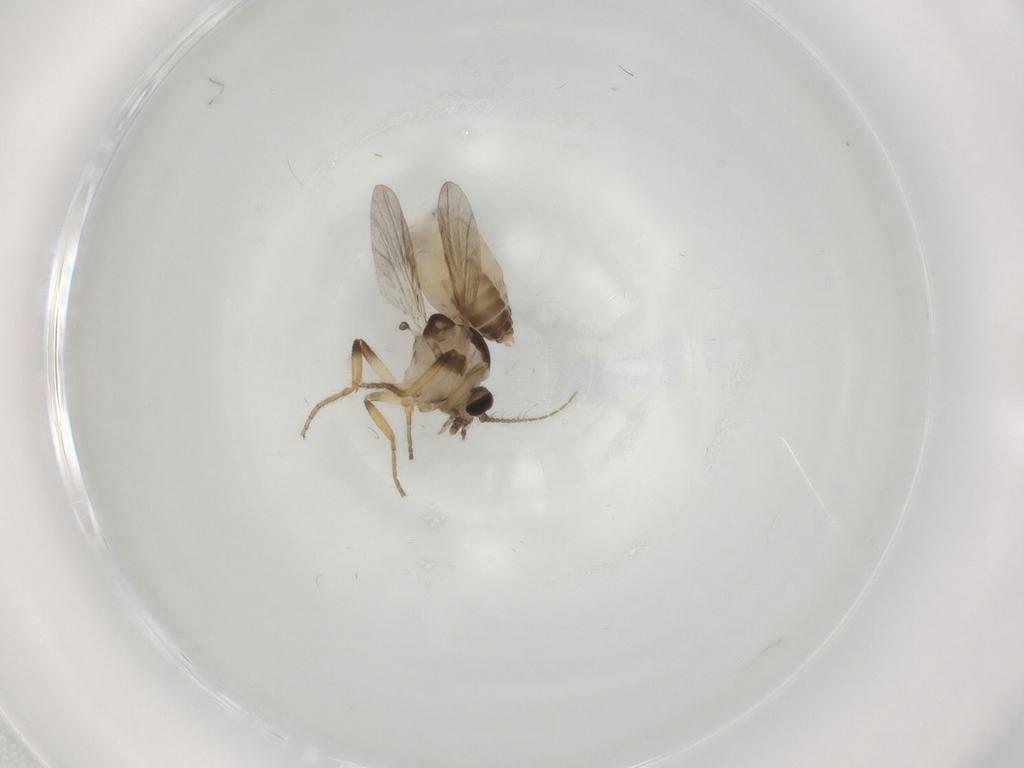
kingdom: Animalia
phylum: Arthropoda
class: Insecta
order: Diptera
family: Ceratopogonidae
